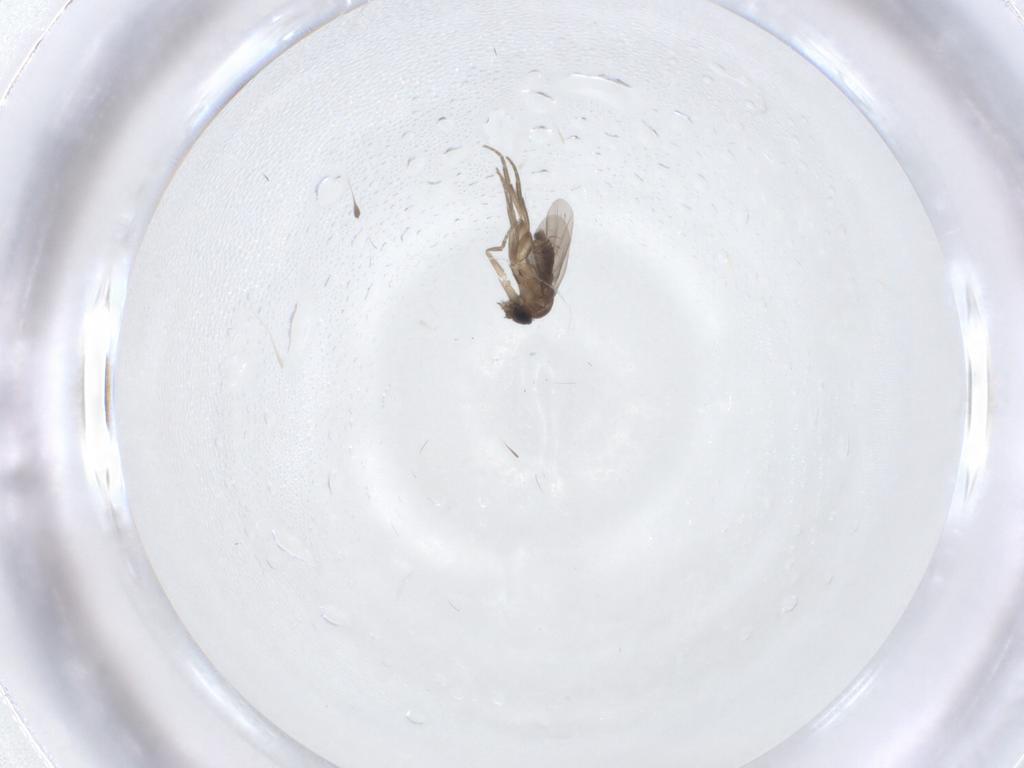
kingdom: Animalia
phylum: Arthropoda
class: Insecta
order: Diptera
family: Phoridae
